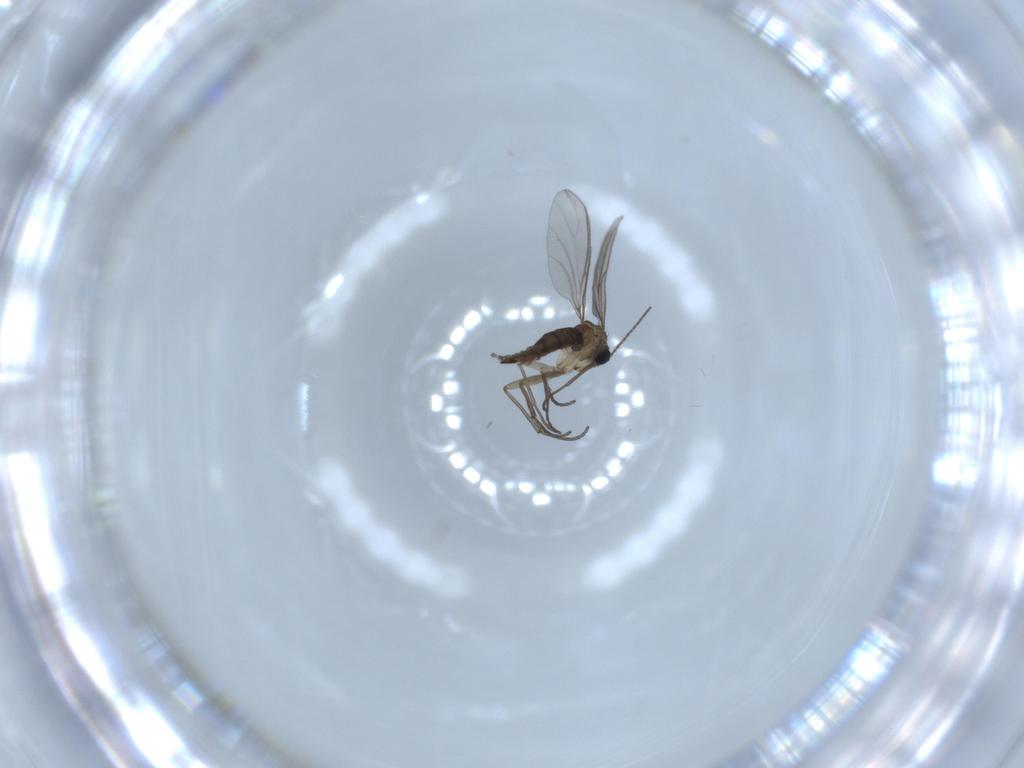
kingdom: Animalia
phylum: Arthropoda
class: Insecta
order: Diptera
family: Sciaridae
